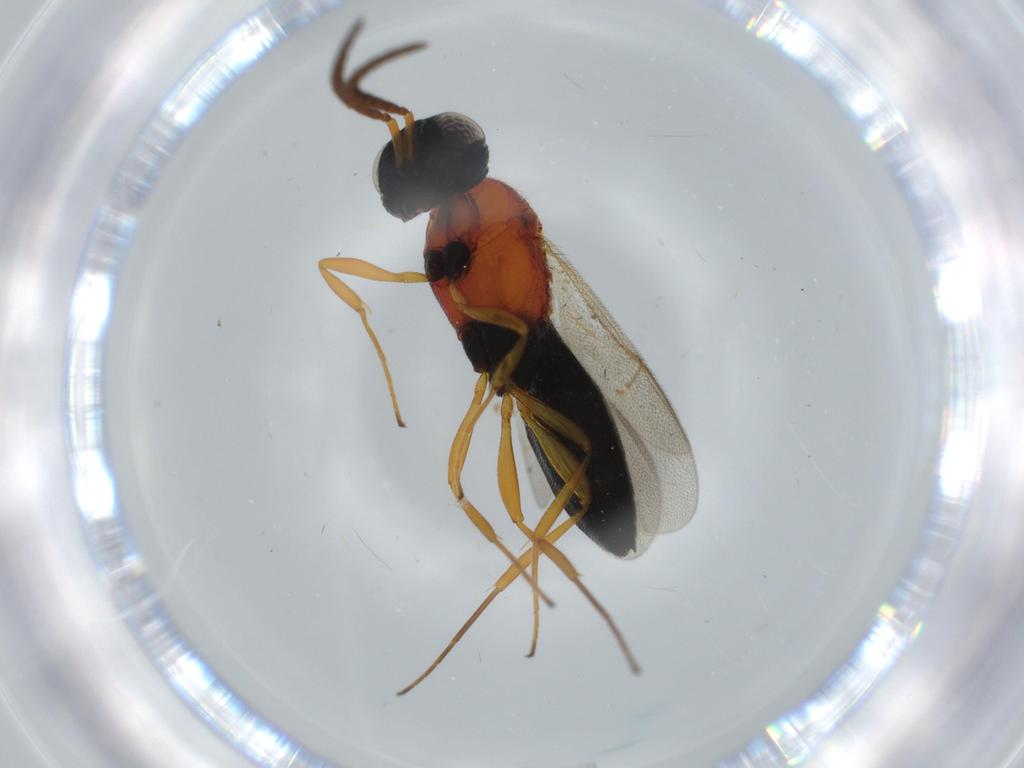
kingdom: Animalia
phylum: Arthropoda
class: Insecta
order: Hymenoptera
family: Scelionidae
